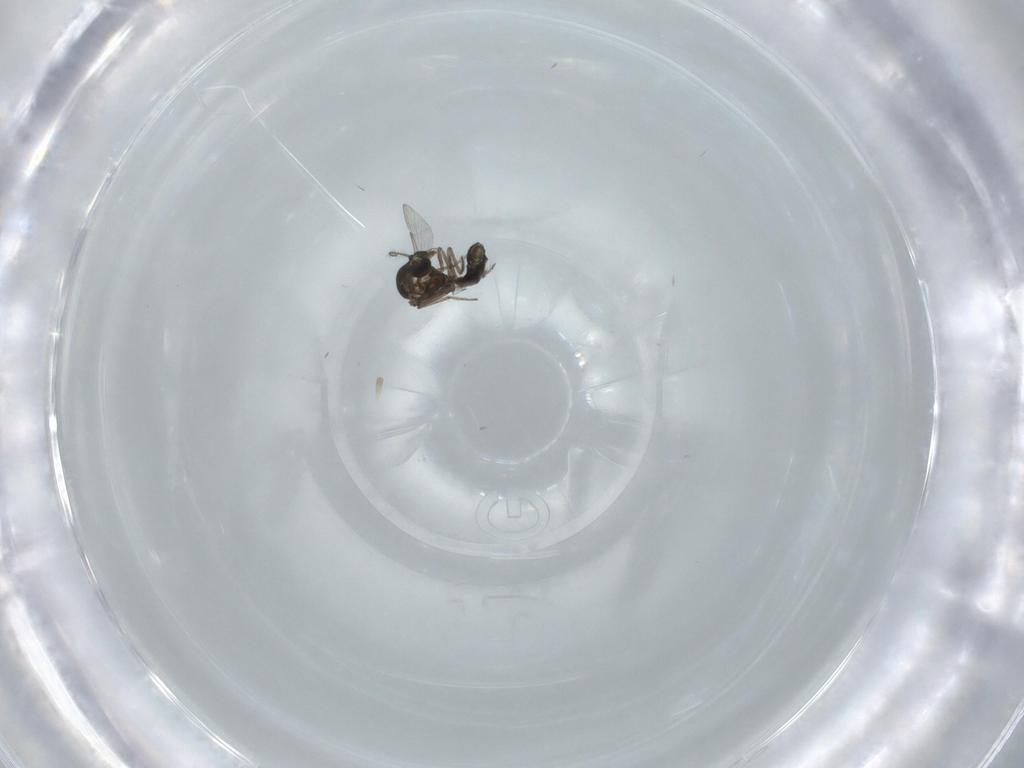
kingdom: Animalia
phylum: Arthropoda
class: Insecta
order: Diptera
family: Ceratopogonidae
